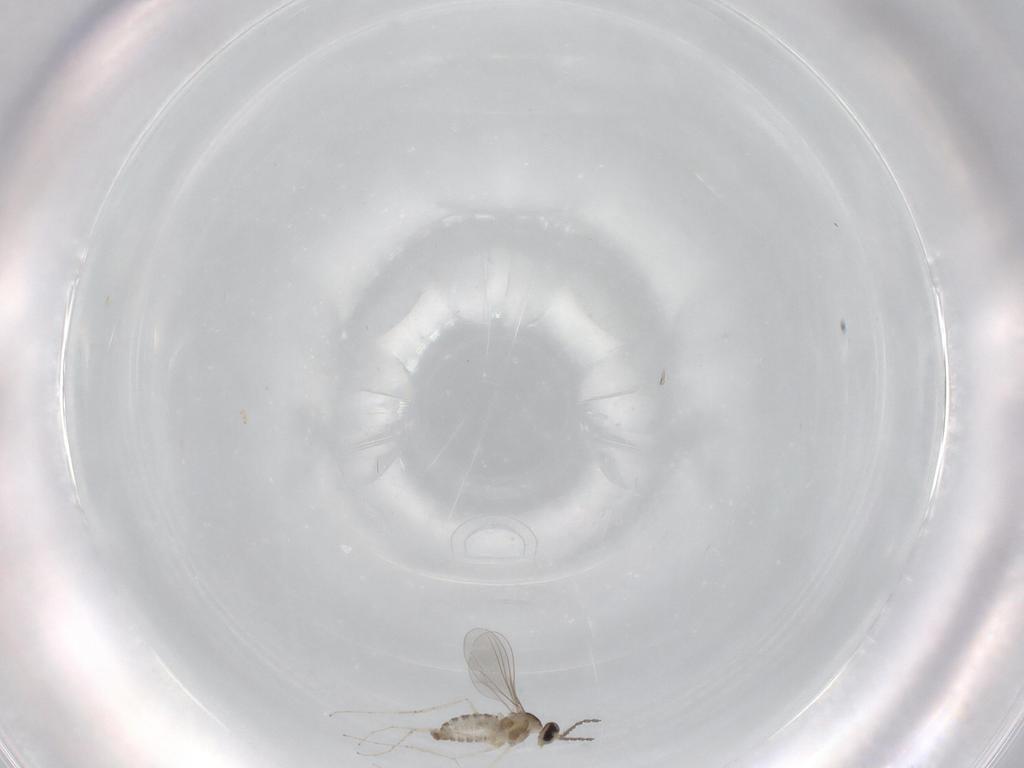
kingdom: Animalia
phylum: Arthropoda
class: Insecta
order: Diptera
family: Cecidomyiidae
